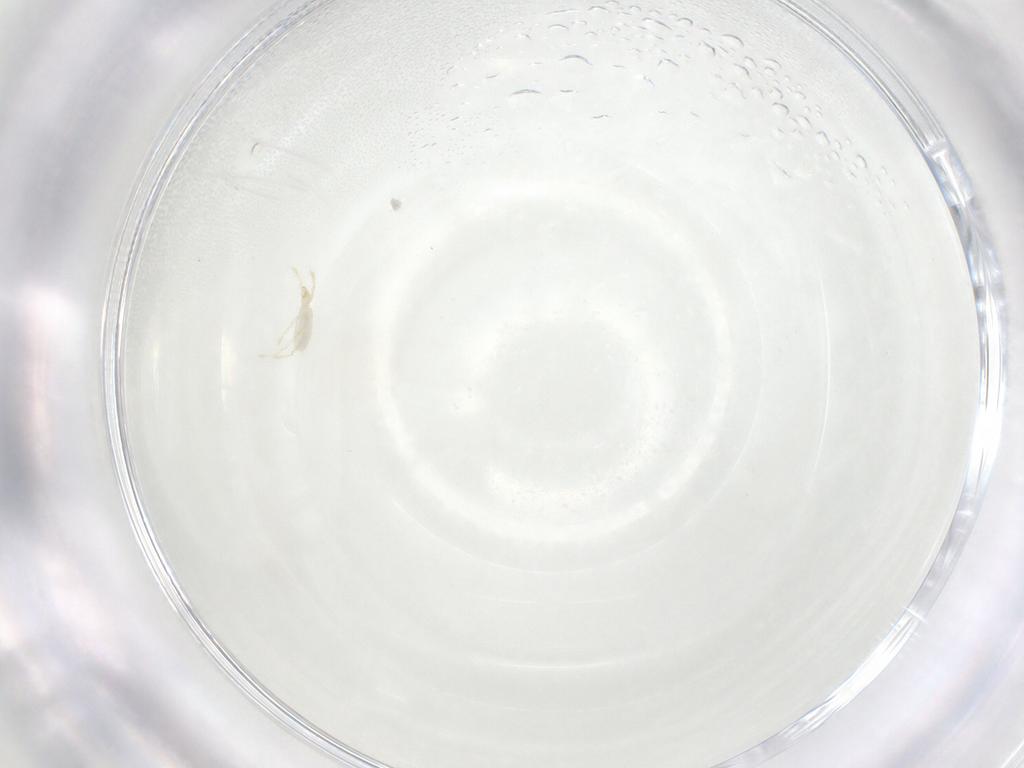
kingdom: Animalia
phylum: Arthropoda
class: Arachnida
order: Trombidiformes
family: Erythraeidae
